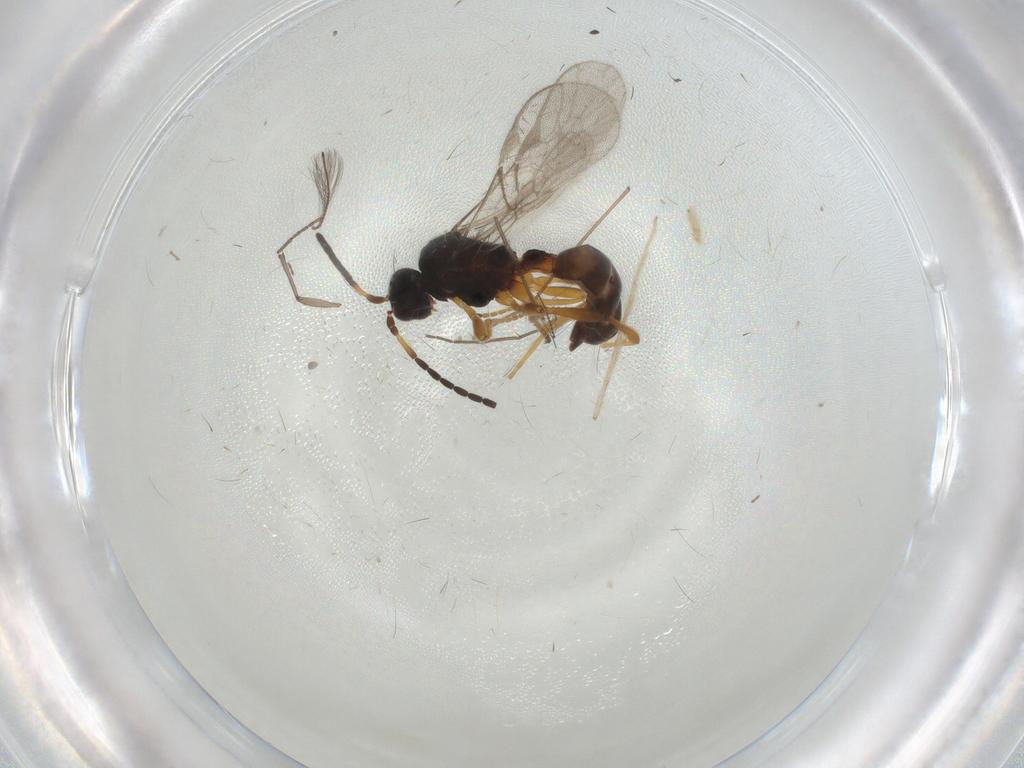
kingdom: Animalia
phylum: Arthropoda
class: Insecta
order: Hymenoptera
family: Braconidae
